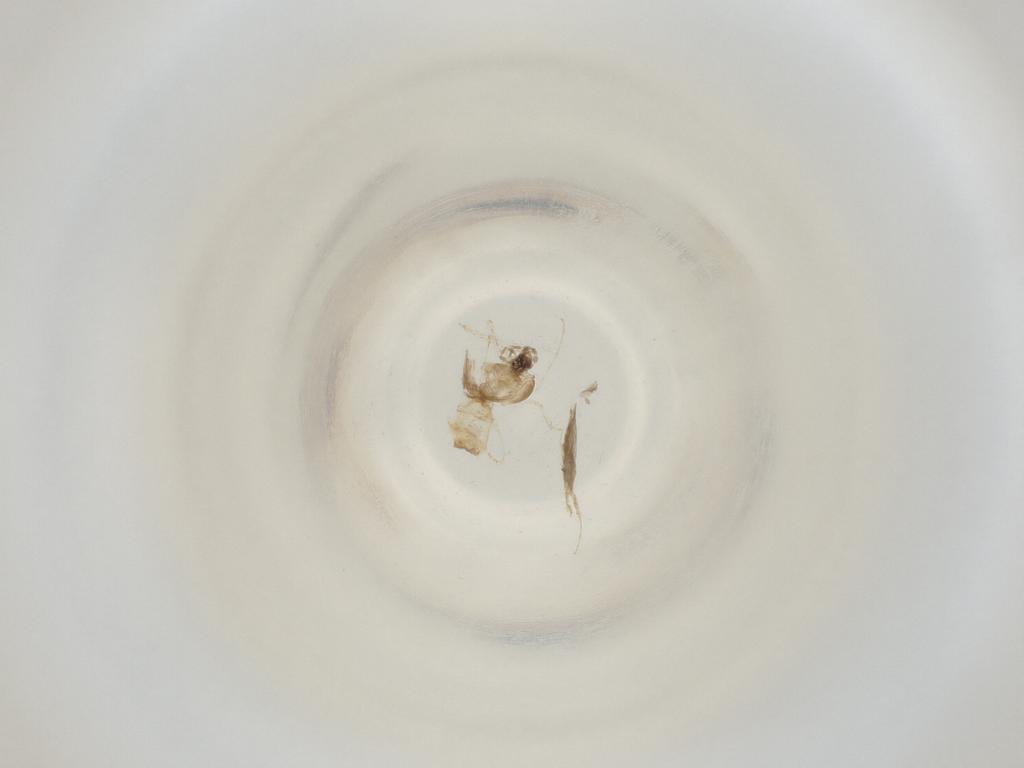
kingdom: Animalia
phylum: Arthropoda
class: Insecta
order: Diptera
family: Cecidomyiidae
